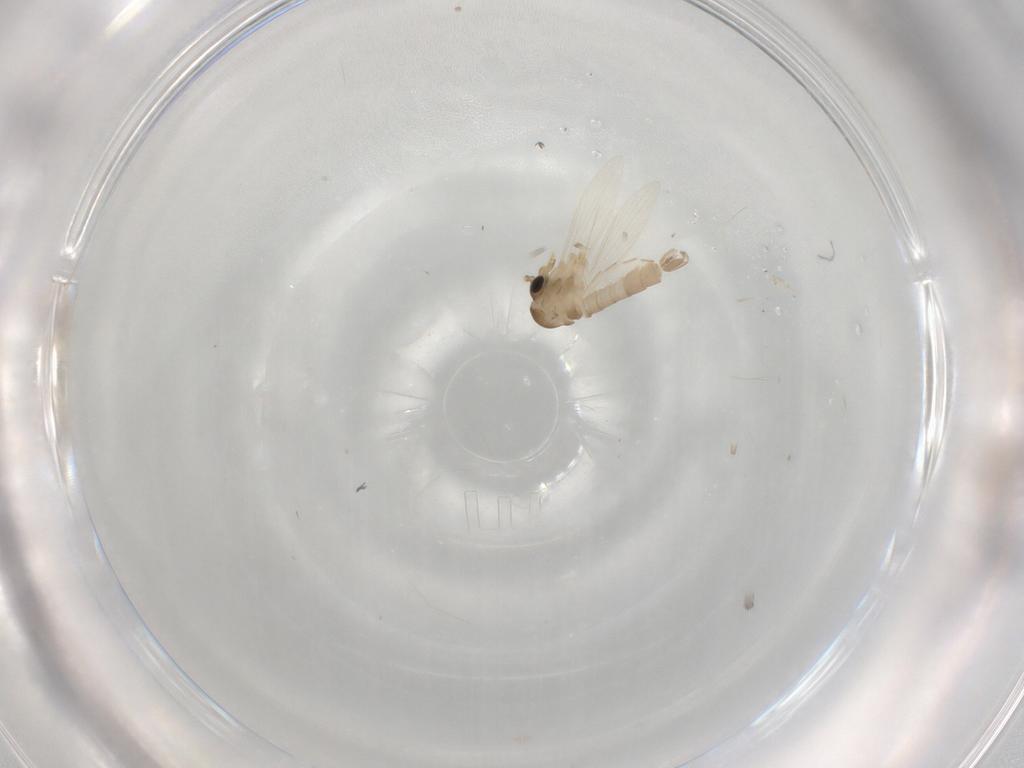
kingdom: Animalia
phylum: Arthropoda
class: Insecta
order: Diptera
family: Psychodidae
